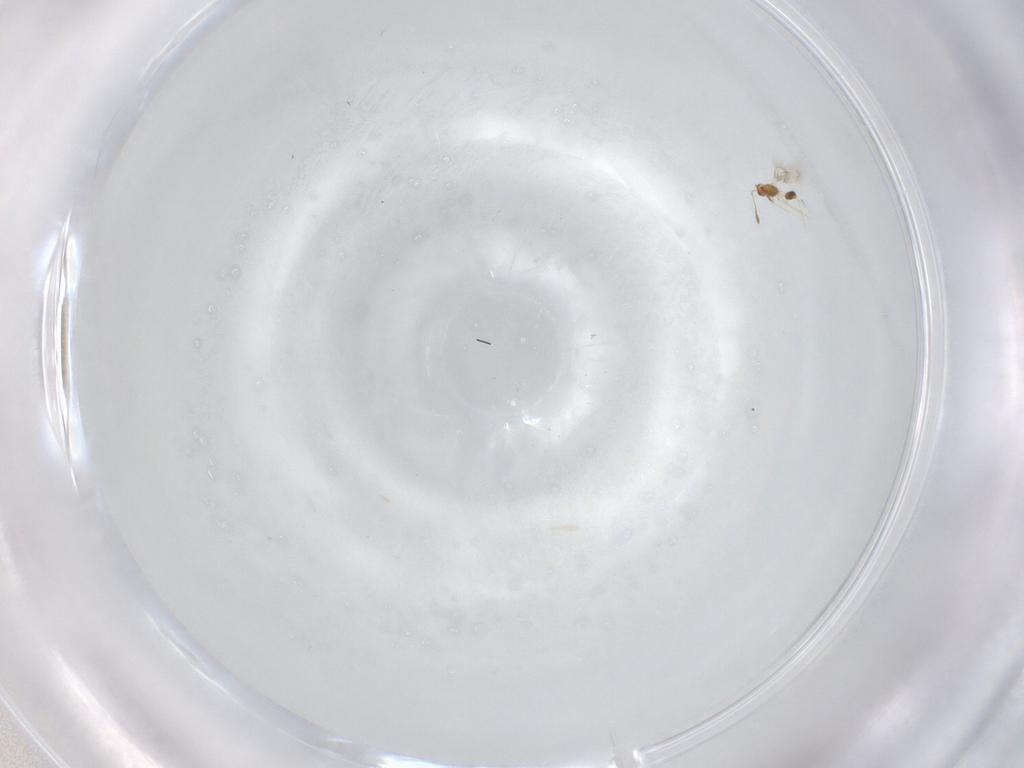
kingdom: Animalia
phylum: Arthropoda
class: Insecta
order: Hymenoptera
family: Mymarommatidae
